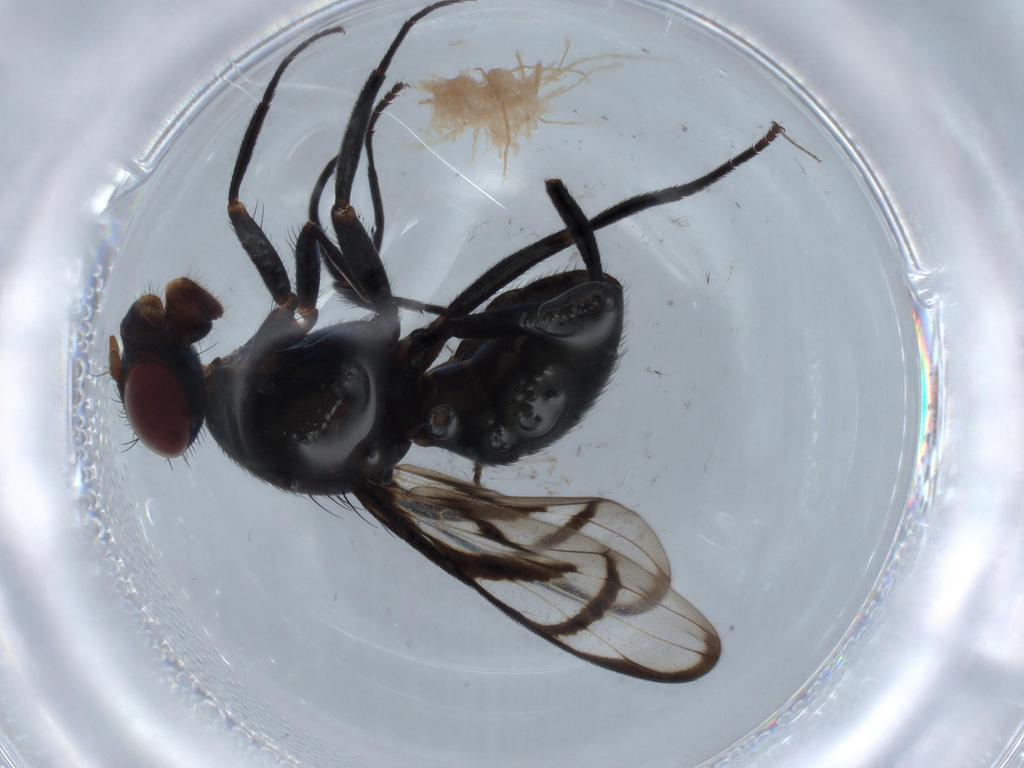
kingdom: Animalia
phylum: Arthropoda
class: Insecta
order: Diptera
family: Ulidiidae
